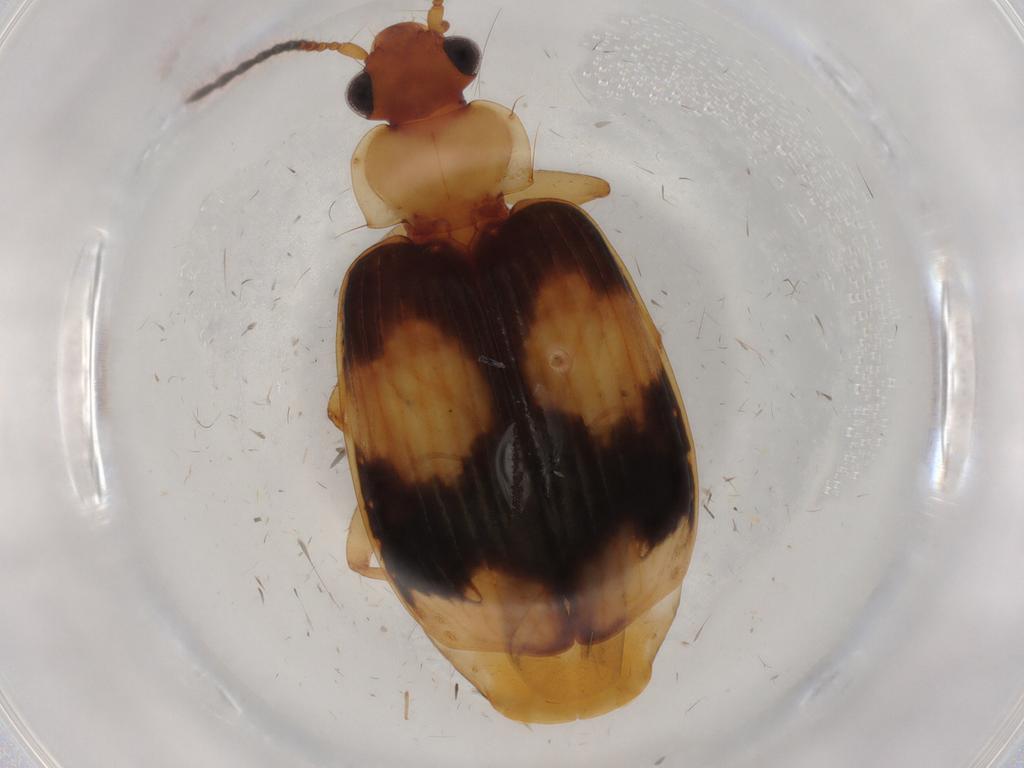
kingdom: Animalia
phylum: Arthropoda
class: Insecta
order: Coleoptera
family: Carabidae
